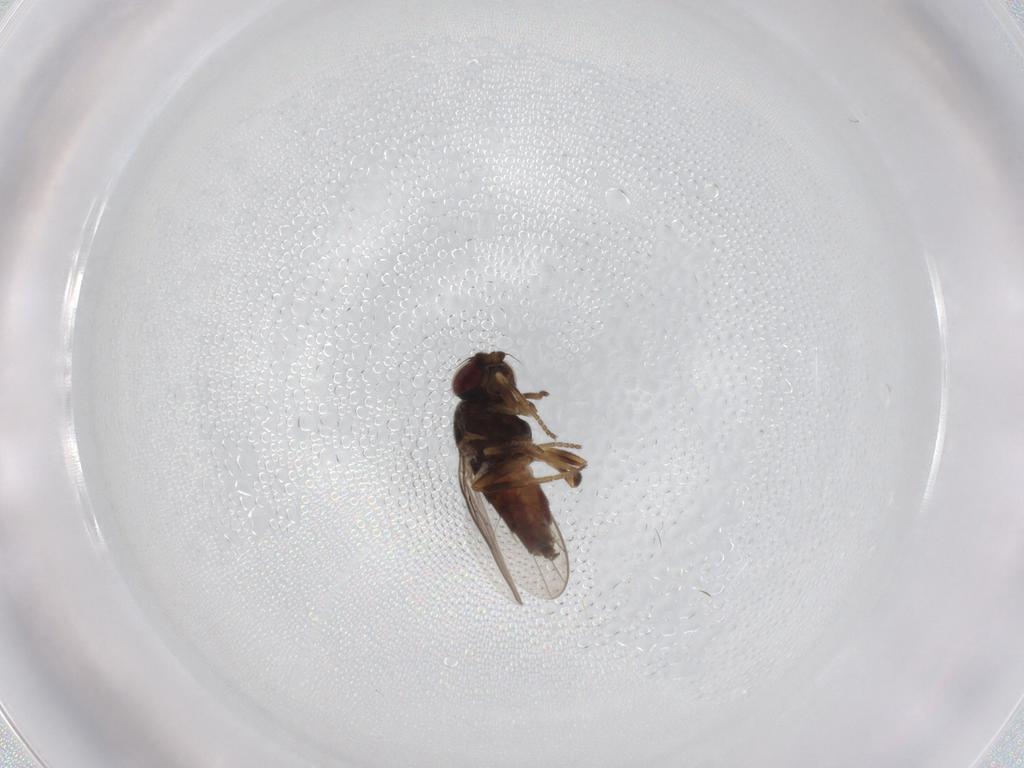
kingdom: Animalia
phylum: Arthropoda
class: Insecta
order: Diptera
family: Chloropidae
